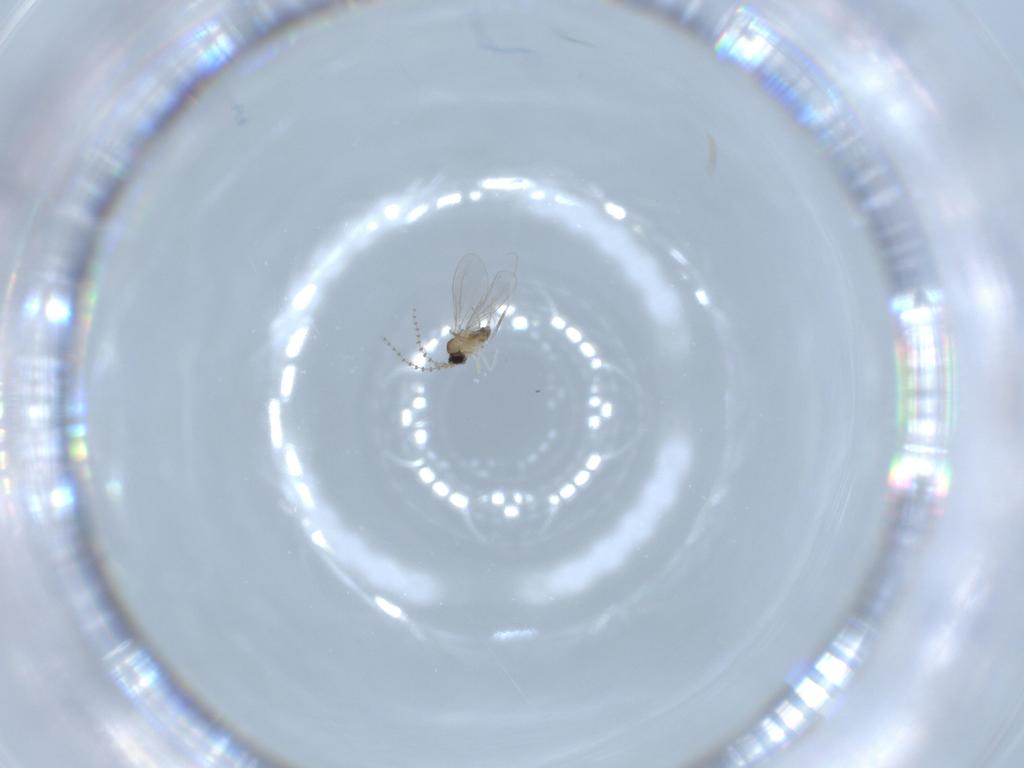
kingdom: Animalia
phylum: Arthropoda
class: Insecta
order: Diptera
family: Cecidomyiidae
